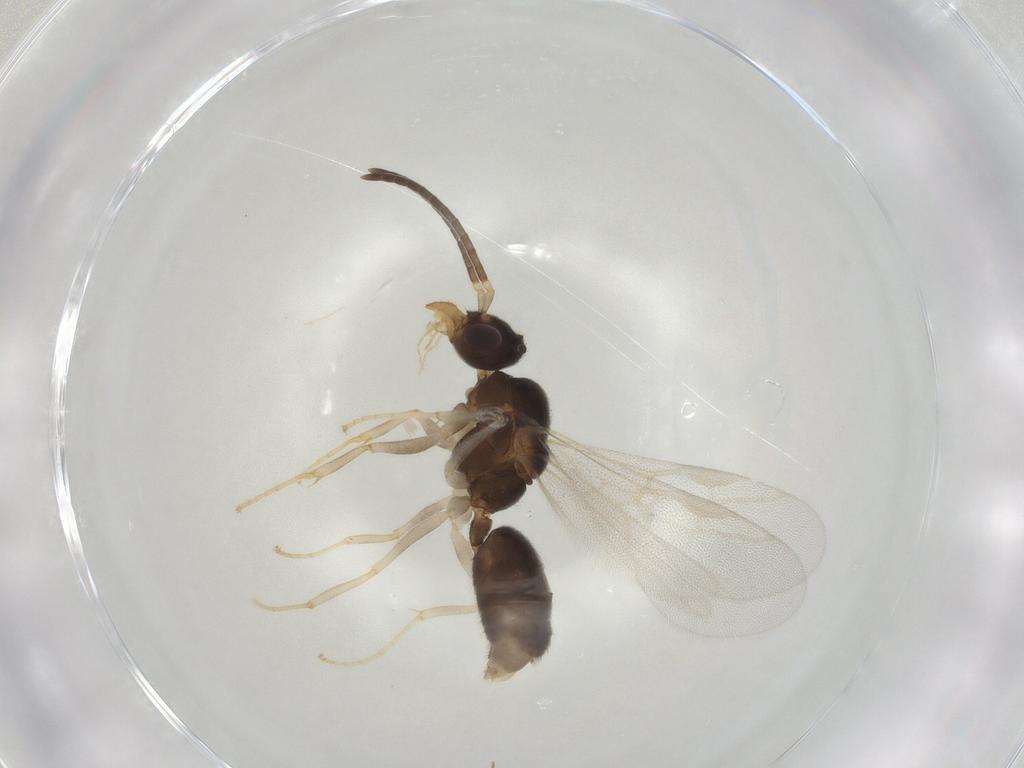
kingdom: Animalia
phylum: Arthropoda
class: Insecta
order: Hymenoptera
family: Formicidae
